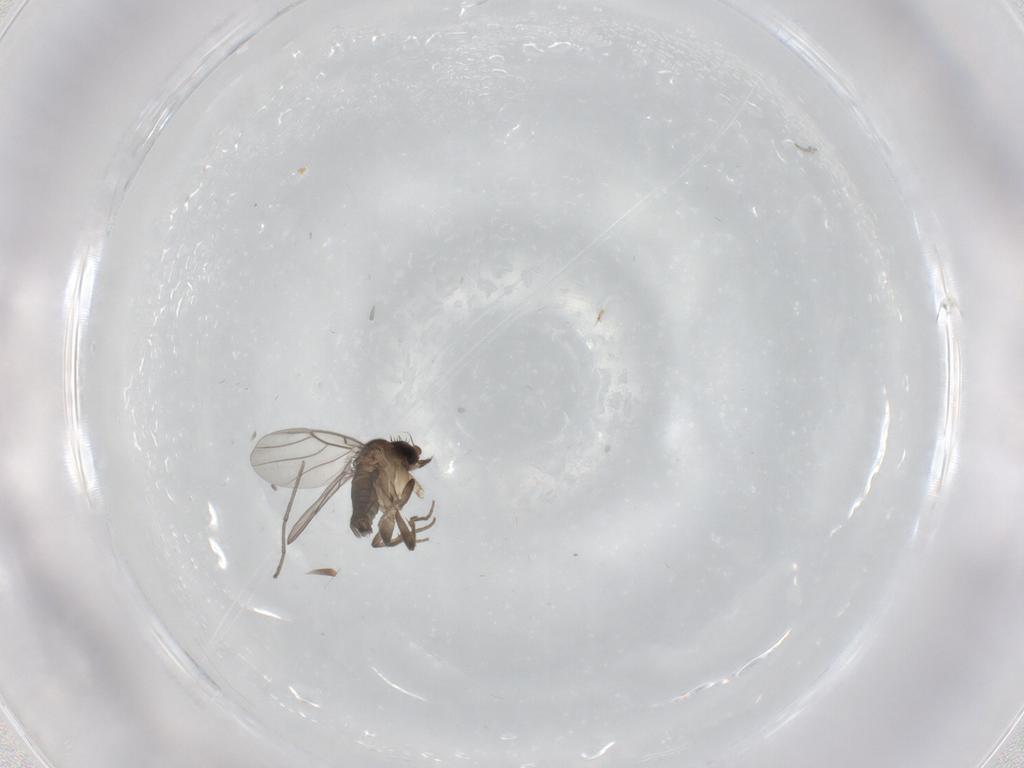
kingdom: Animalia
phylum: Arthropoda
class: Insecta
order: Diptera
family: Phoridae
